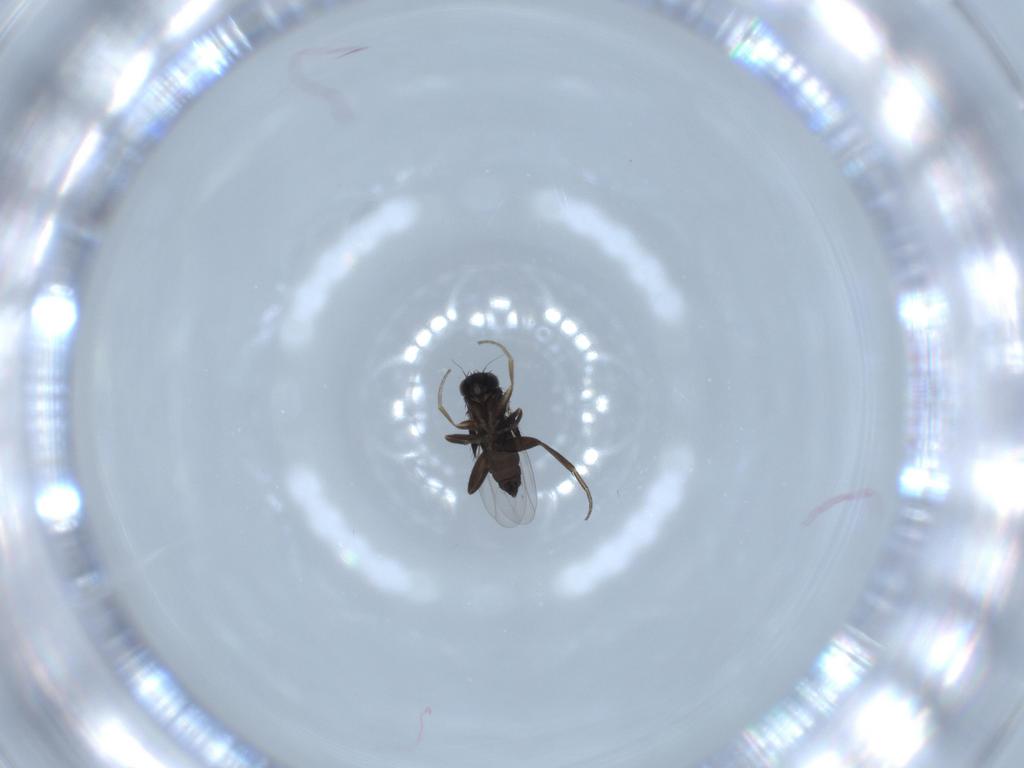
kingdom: Animalia
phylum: Arthropoda
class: Insecta
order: Diptera
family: Phoridae
